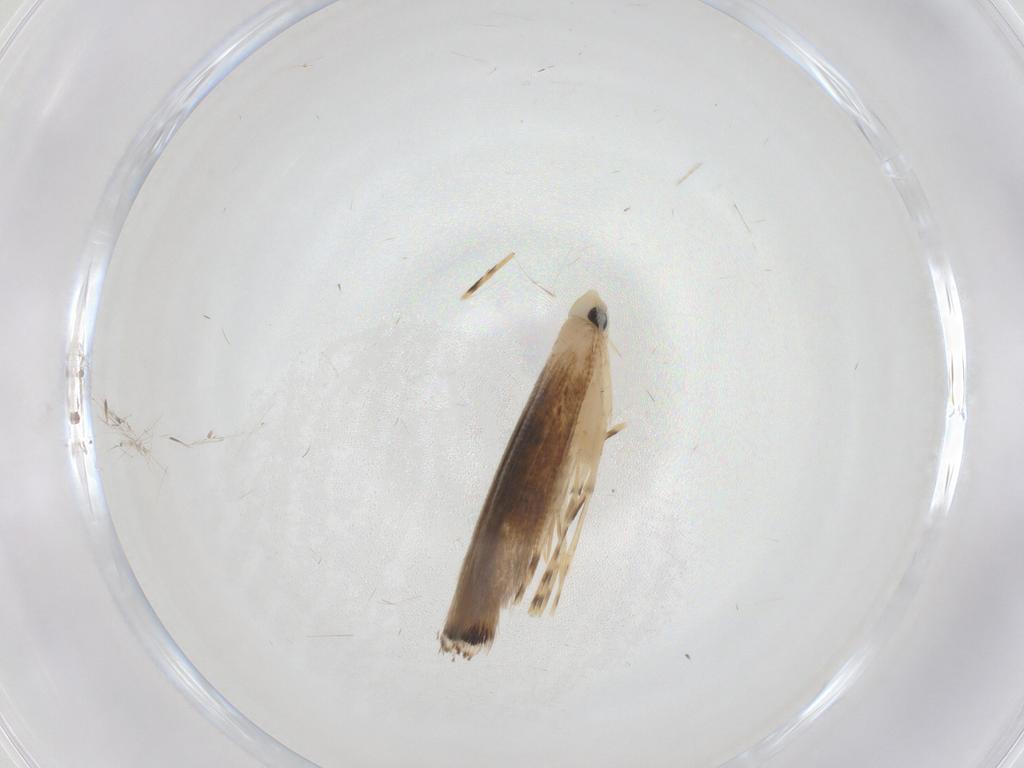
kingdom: Animalia
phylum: Arthropoda
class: Insecta
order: Lepidoptera
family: Gracillariidae
